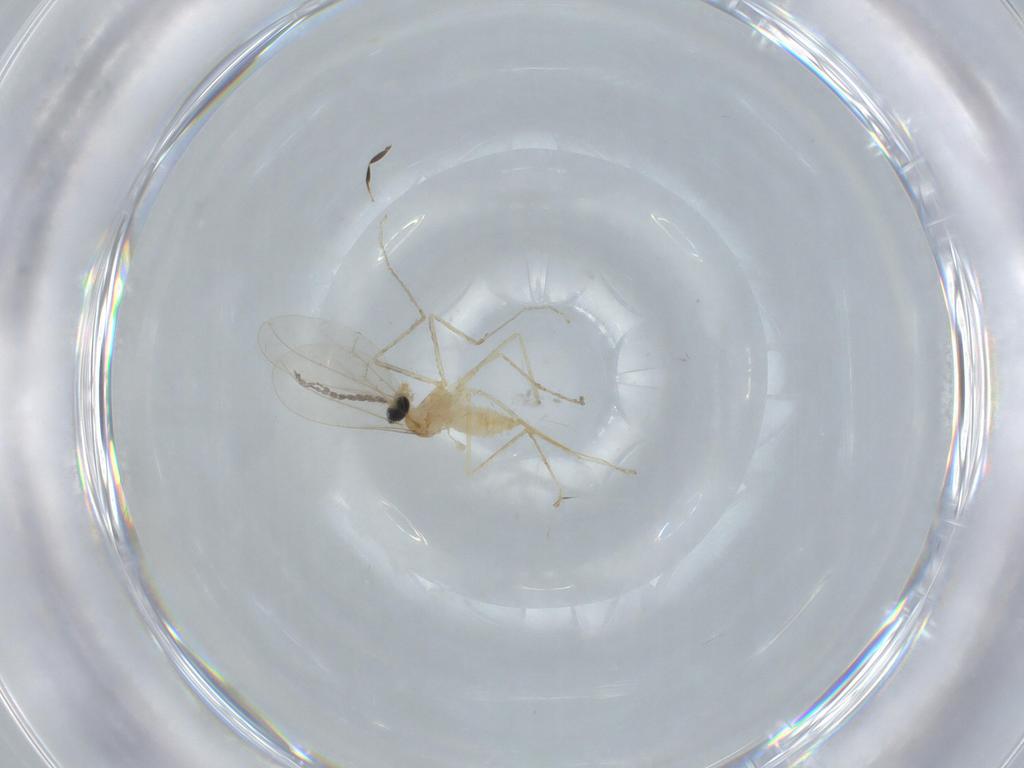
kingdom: Animalia
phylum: Arthropoda
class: Insecta
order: Diptera
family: Cecidomyiidae
